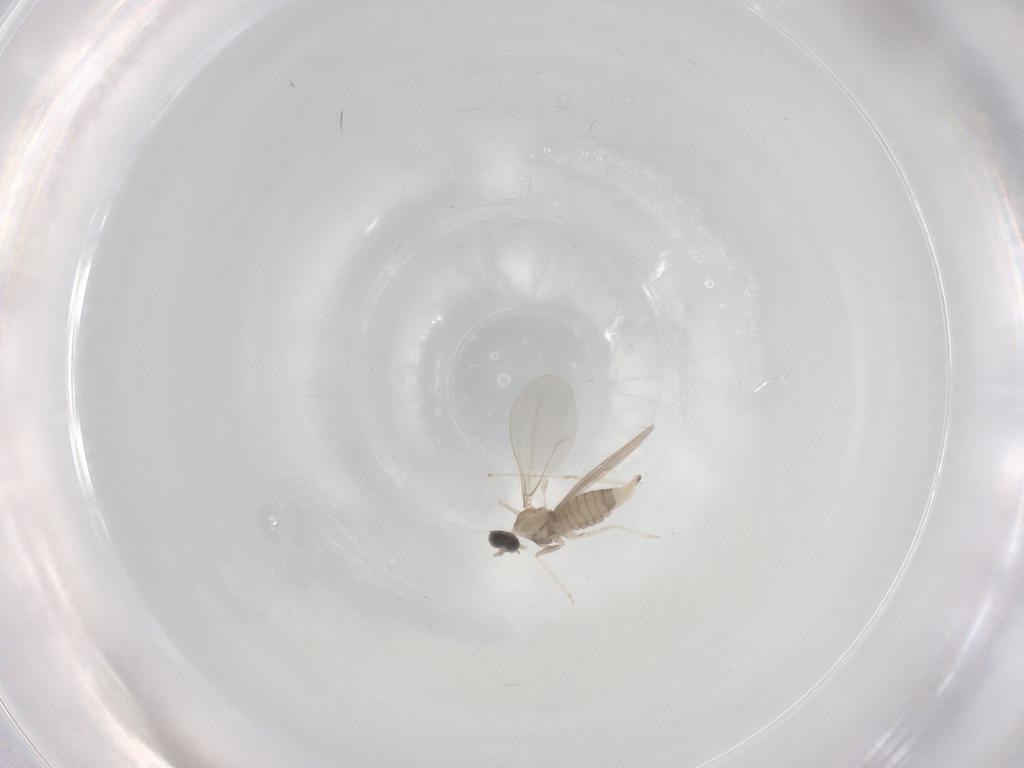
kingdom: Animalia
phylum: Arthropoda
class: Insecta
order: Diptera
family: Cecidomyiidae
